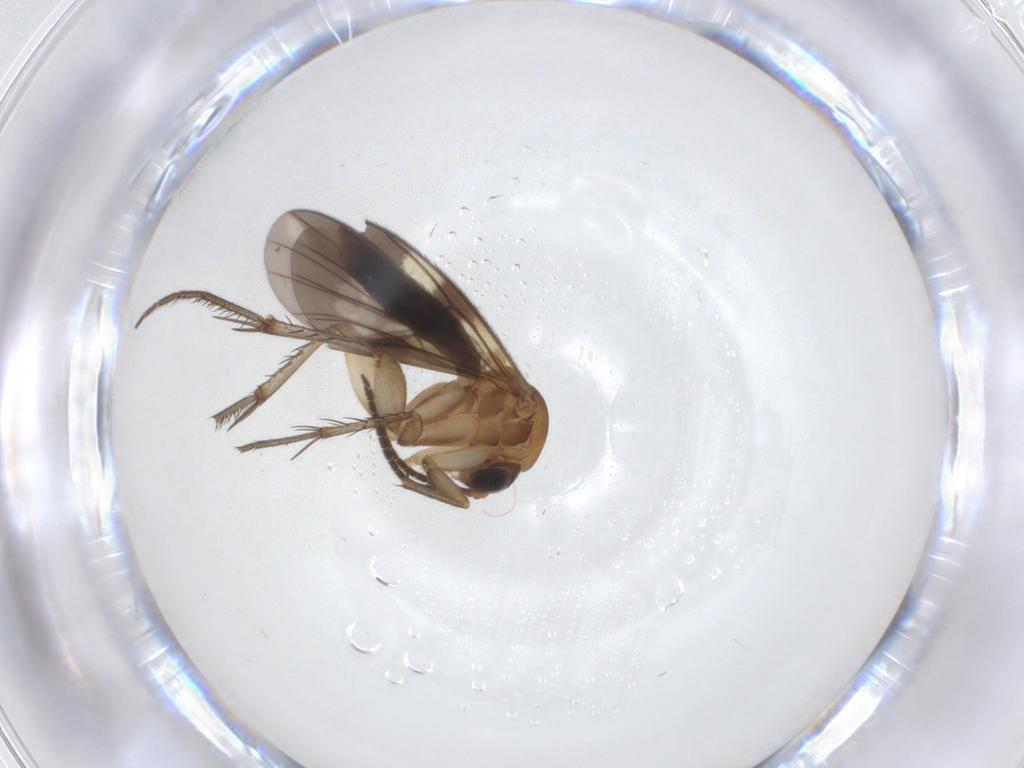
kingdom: Animalia
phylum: Arthropoda
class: Insecta
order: Diptera
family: Mycetophilidae
